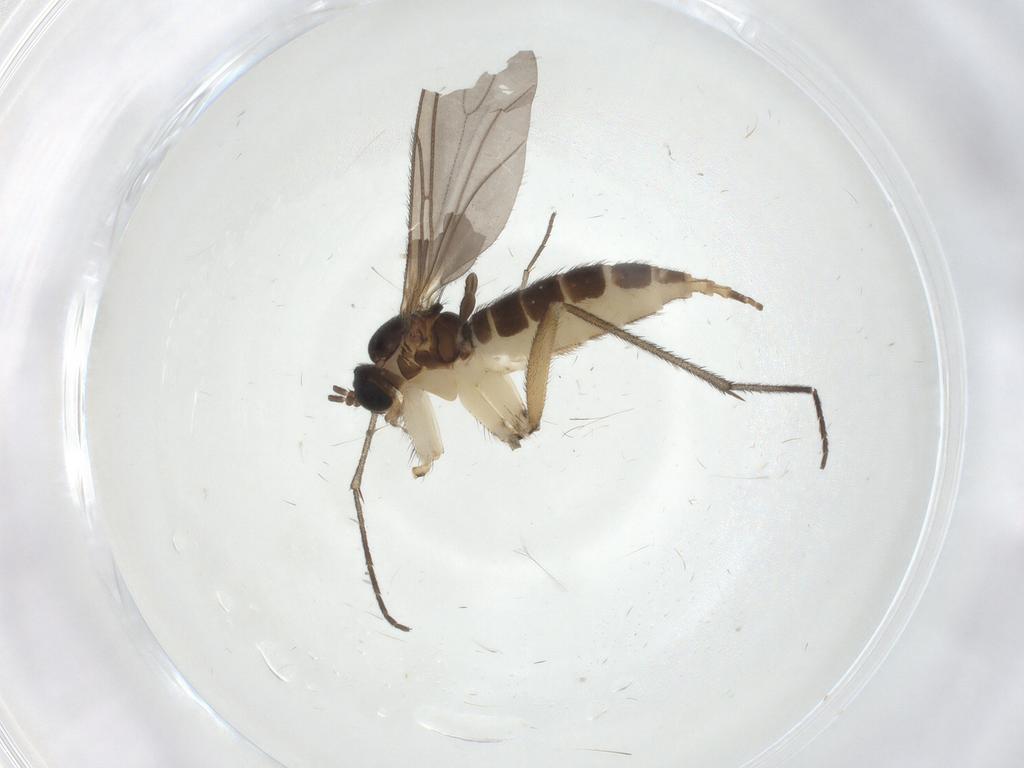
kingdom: Animalia
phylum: Arthropoda
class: Insecta
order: Diptera
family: Sciaridae
